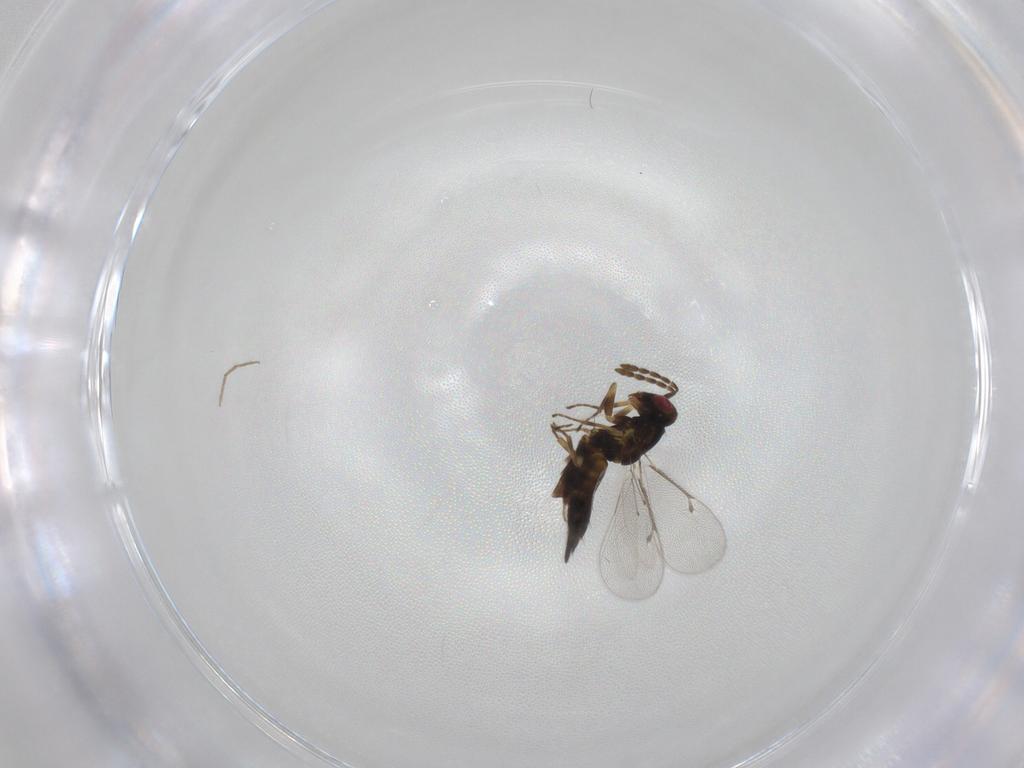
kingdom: Animalia
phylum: Arthropoda
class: Insecta
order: Hymenoptera
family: Eulophidae
